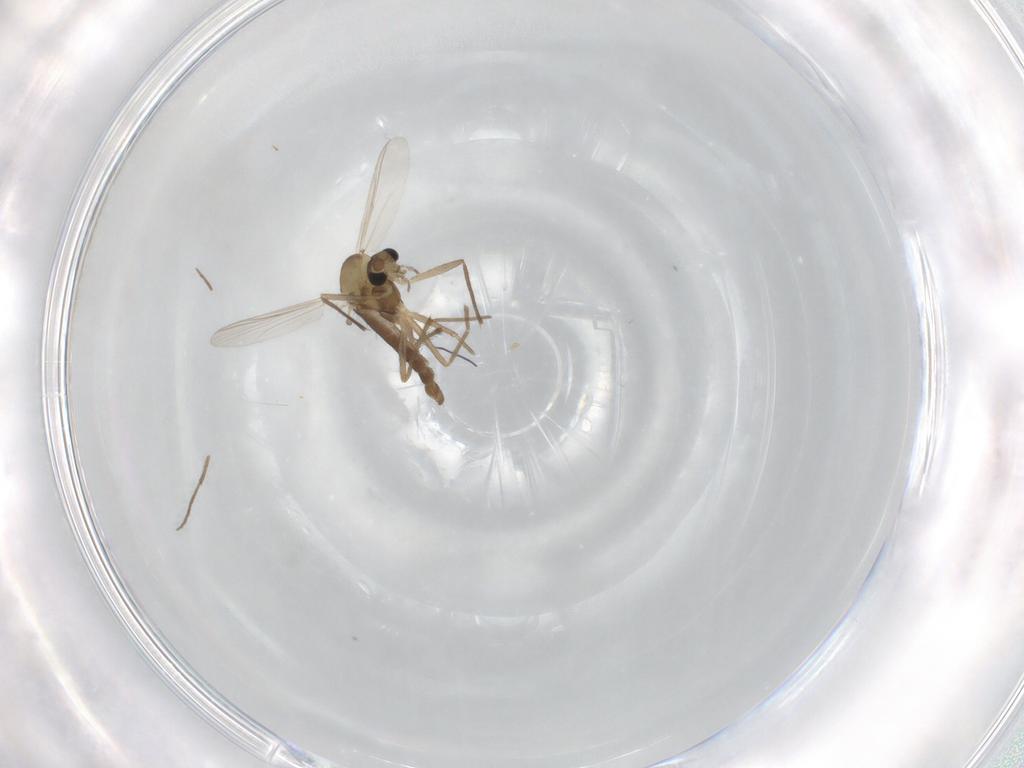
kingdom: Animalia
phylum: Arthropoda
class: Insecta
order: Diptera
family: Chironomidae
